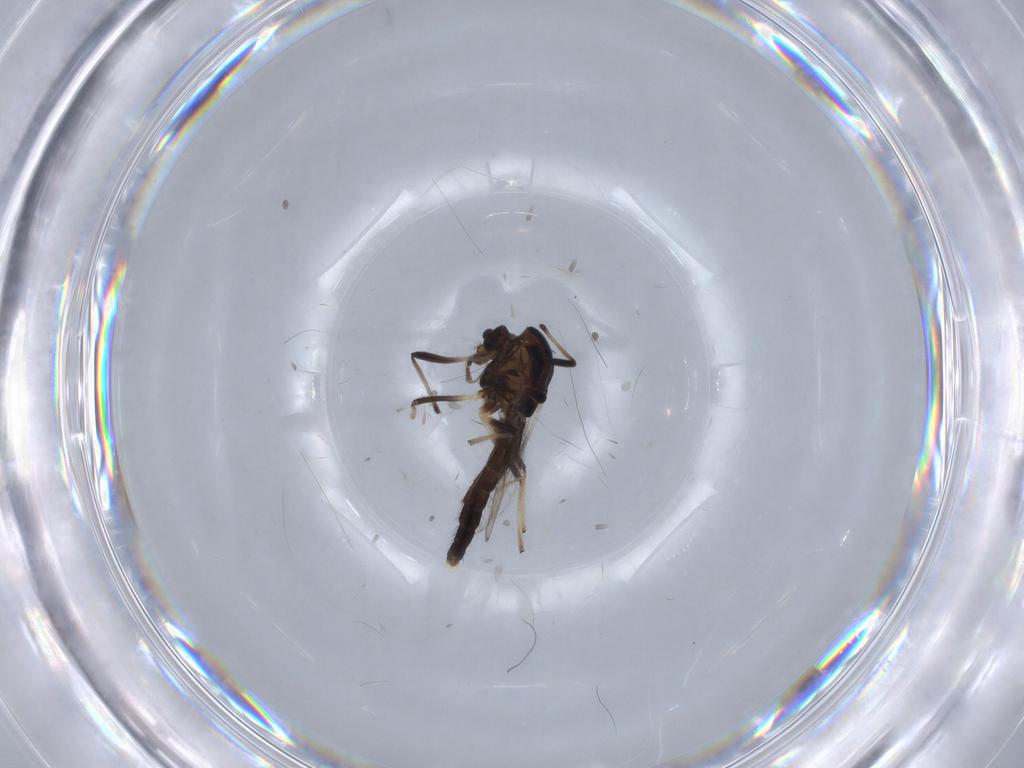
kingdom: Animalia
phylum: Arthropoda
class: Insecta
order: Diptera
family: Chironomidae
